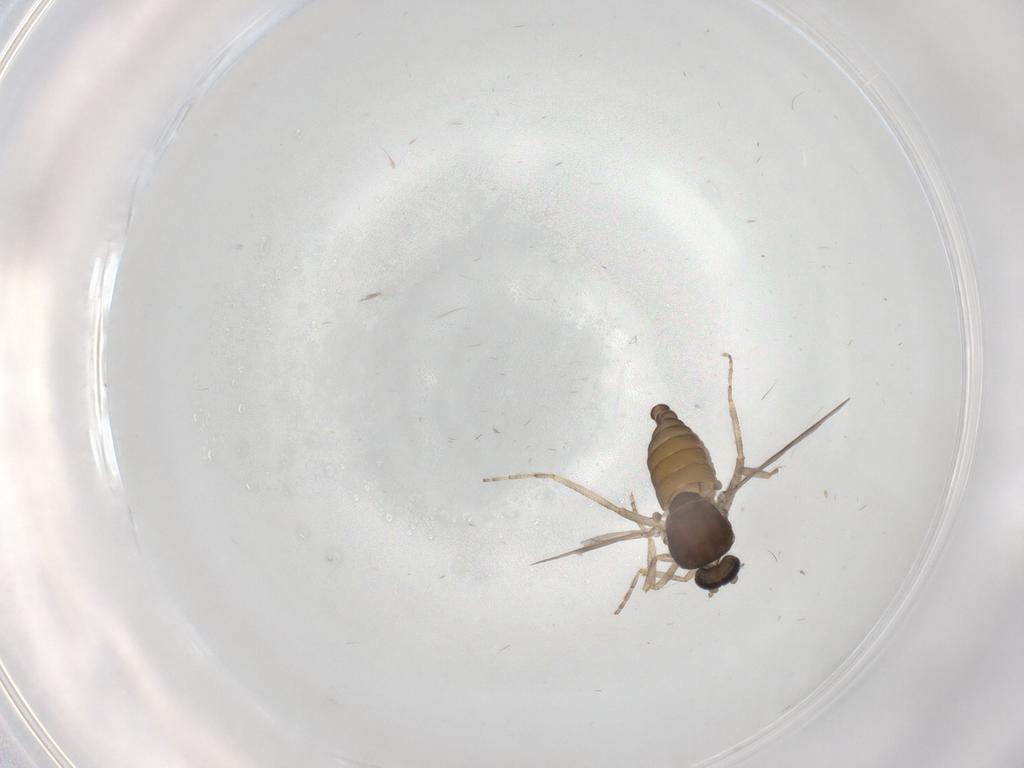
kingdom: Animalia
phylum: Arthropoda
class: Insecta
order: Diptera
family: Ceratopogonidae
